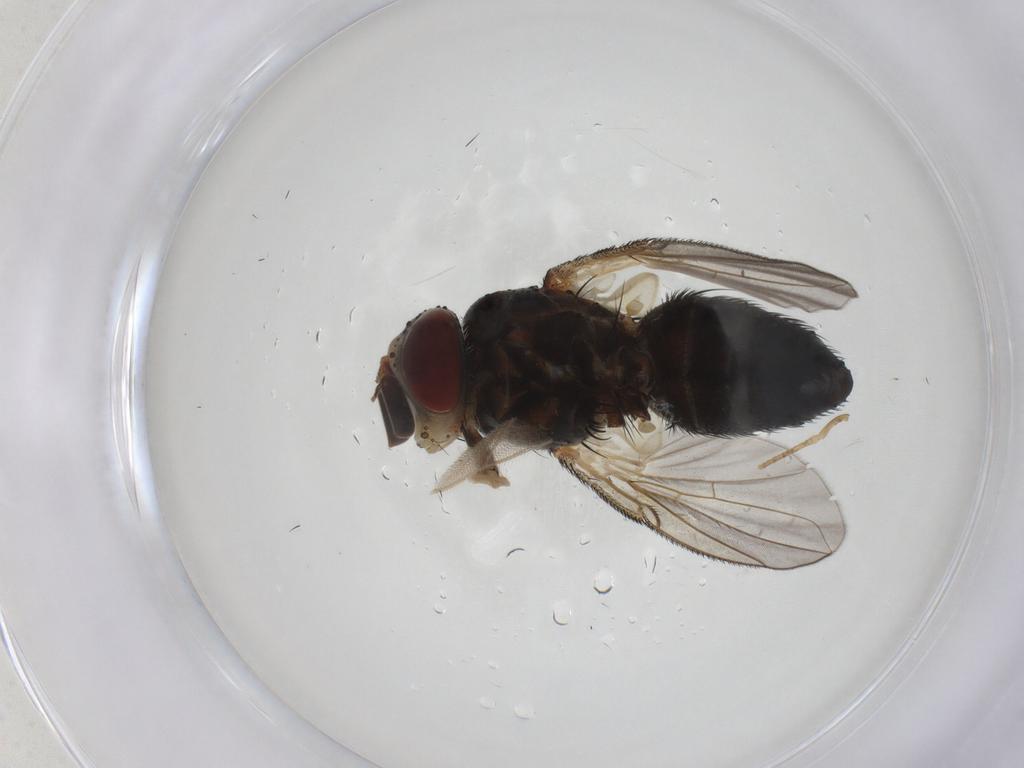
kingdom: Animalia
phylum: Arthropoda
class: Insecta
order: Diptera
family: Tachinidae
